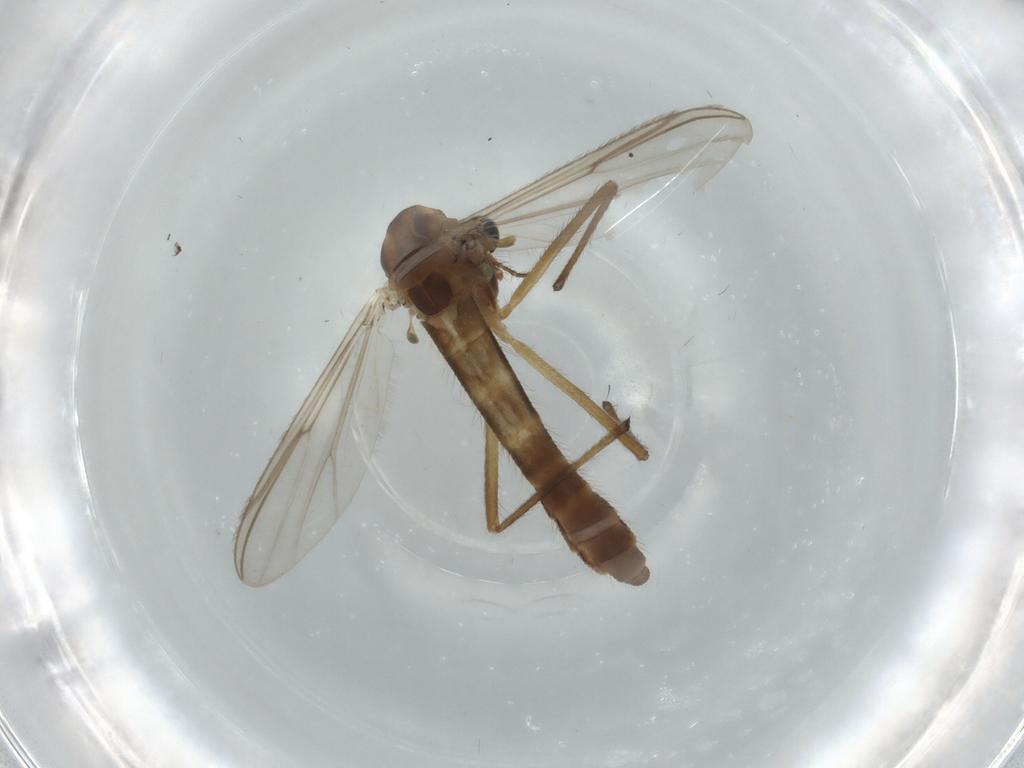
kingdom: Animalia
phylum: Arthropoda
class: Insecta
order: Diptera
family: Chironomidae
